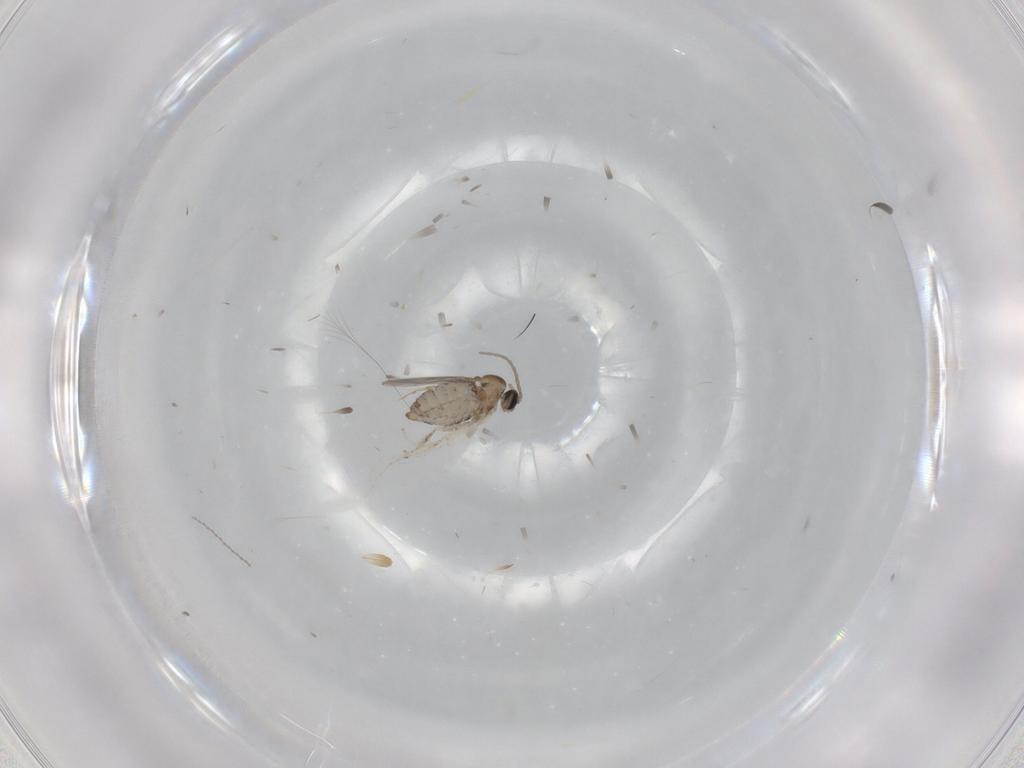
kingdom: Animalia
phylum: Arthropoda
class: Insecta
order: Diptera
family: Cecidomyiidae
